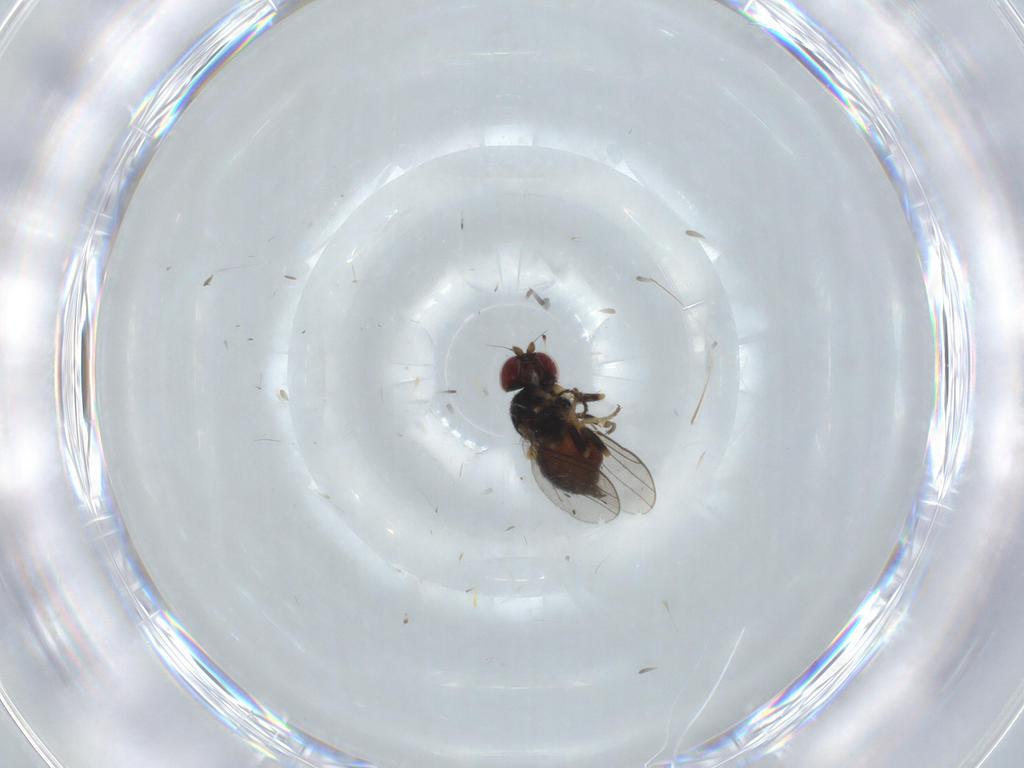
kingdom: Animalia
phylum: Arthropoda
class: Insecta
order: Diptera
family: Chloropidae
